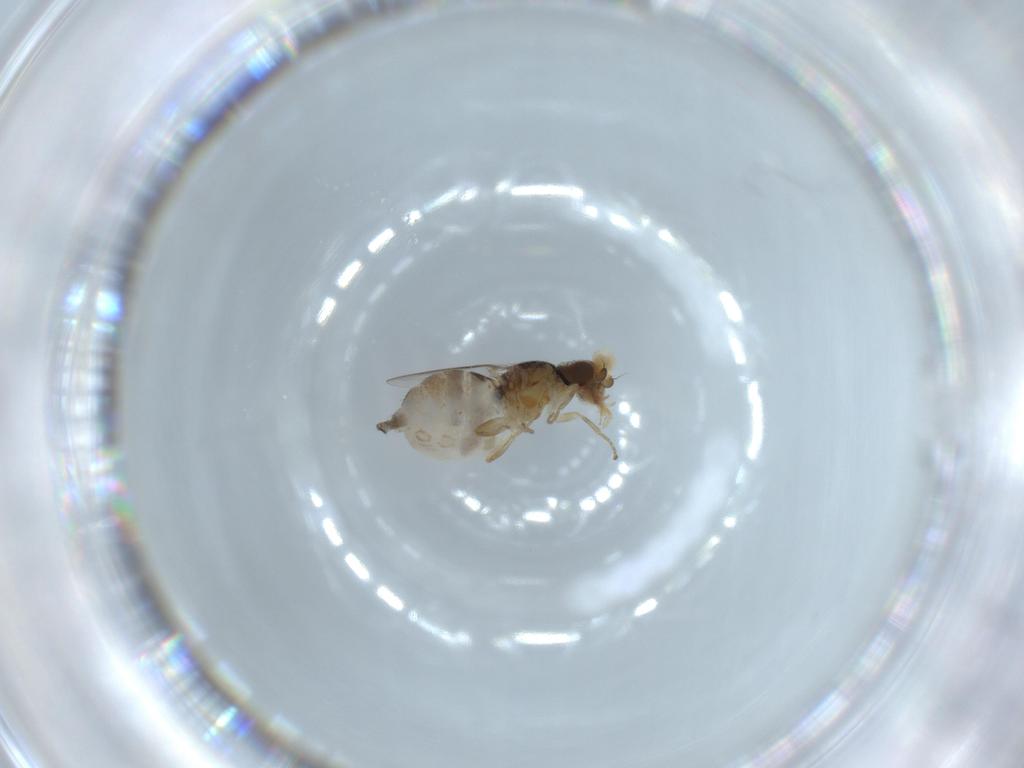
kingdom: Animalia
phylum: Arthropoda
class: Insecta
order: Diptera
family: Chloropidae
